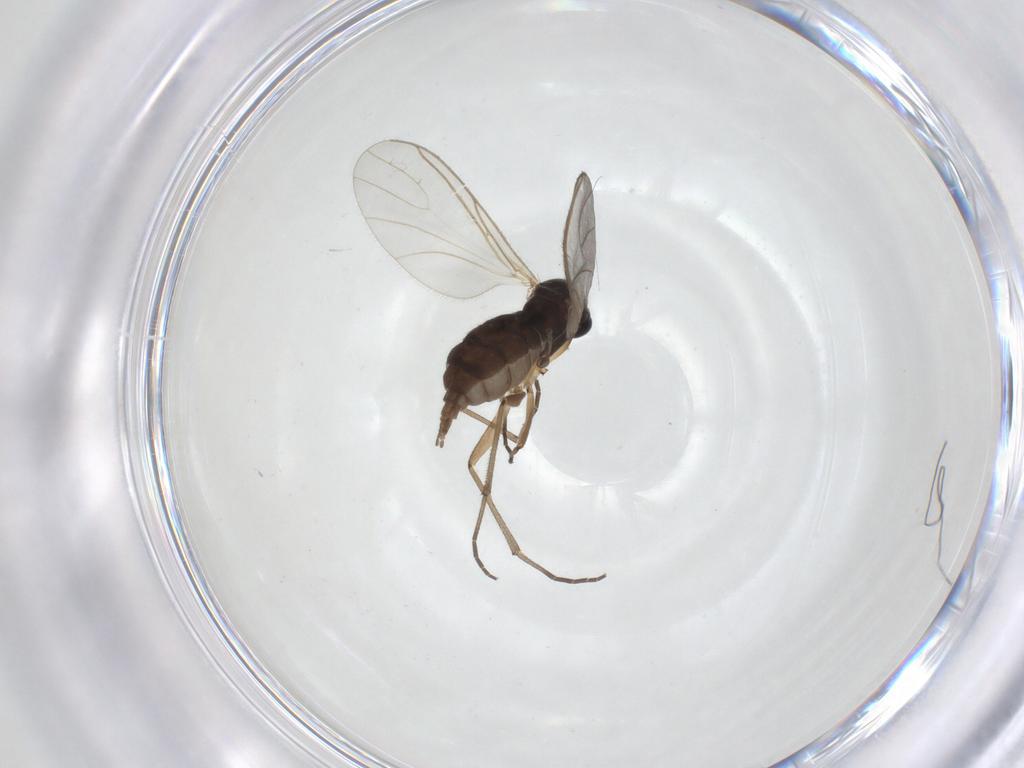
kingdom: Animalia
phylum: Arthropoda
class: Insecta
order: Diptera
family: Sciaridae
